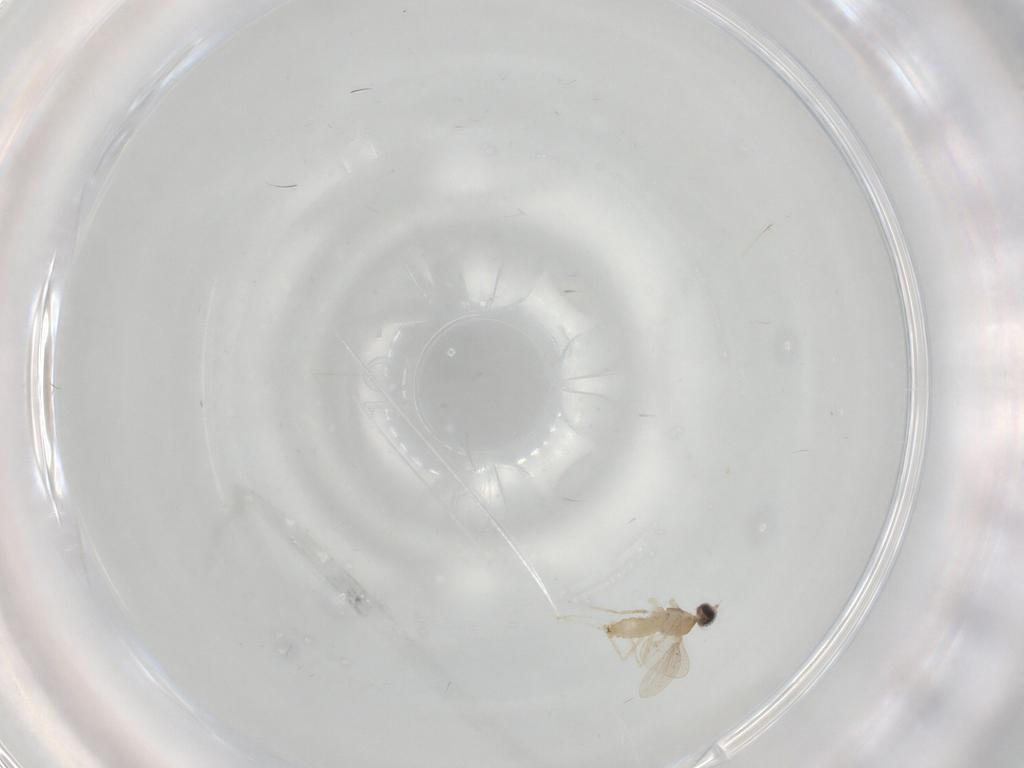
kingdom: Animalia
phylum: Arthropoda
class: Insecta
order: Diptera
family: Cecidomyiidae
